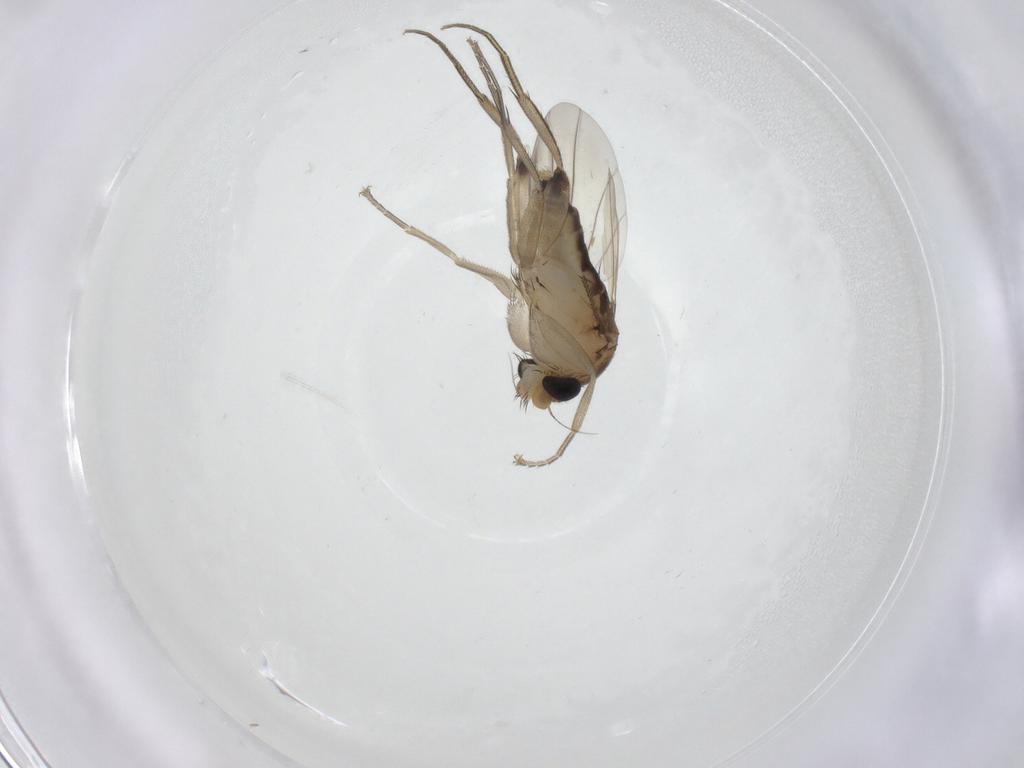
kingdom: Animalia
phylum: Arthropoda
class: Insecta
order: Diptera
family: Phoridae
